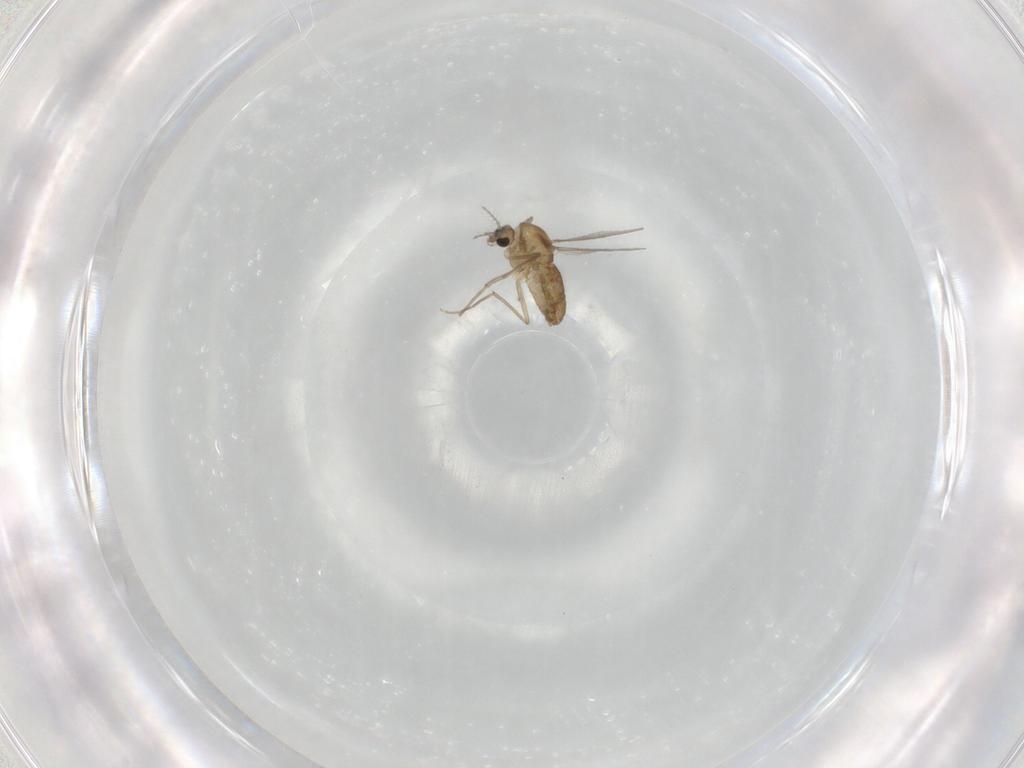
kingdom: Animalia
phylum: Arthropoda
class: Insecta
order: Diptera
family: Chironomidae
